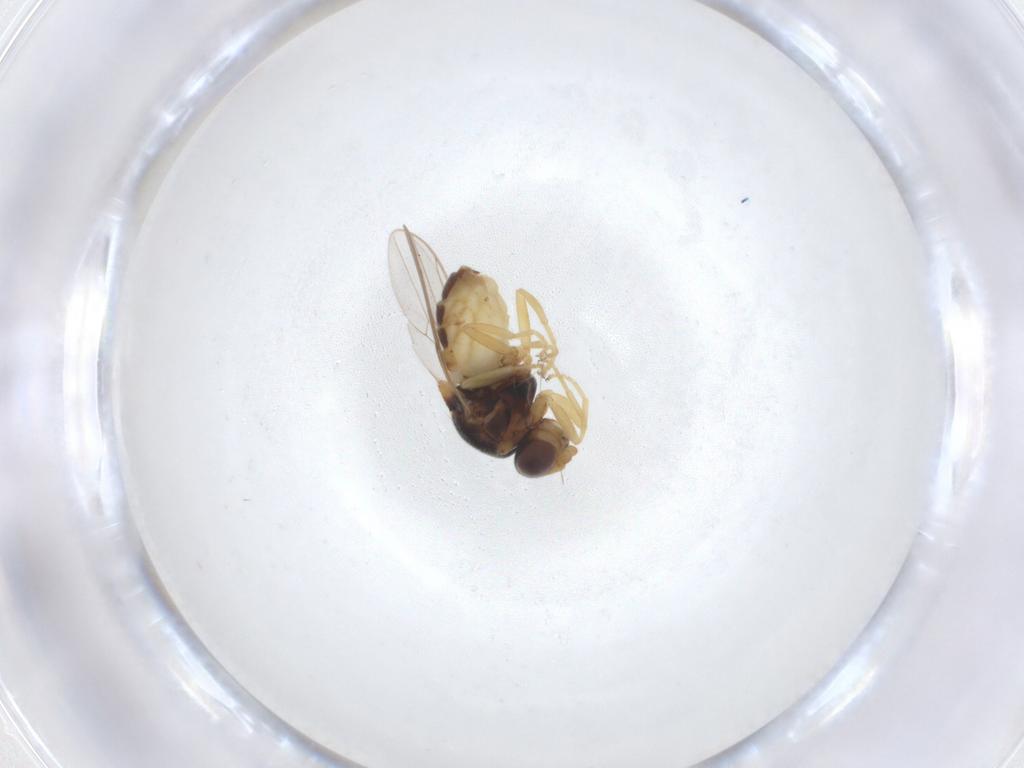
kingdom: Animalia
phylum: Arthropoda
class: Insecta
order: Diptera
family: Chloropidae
